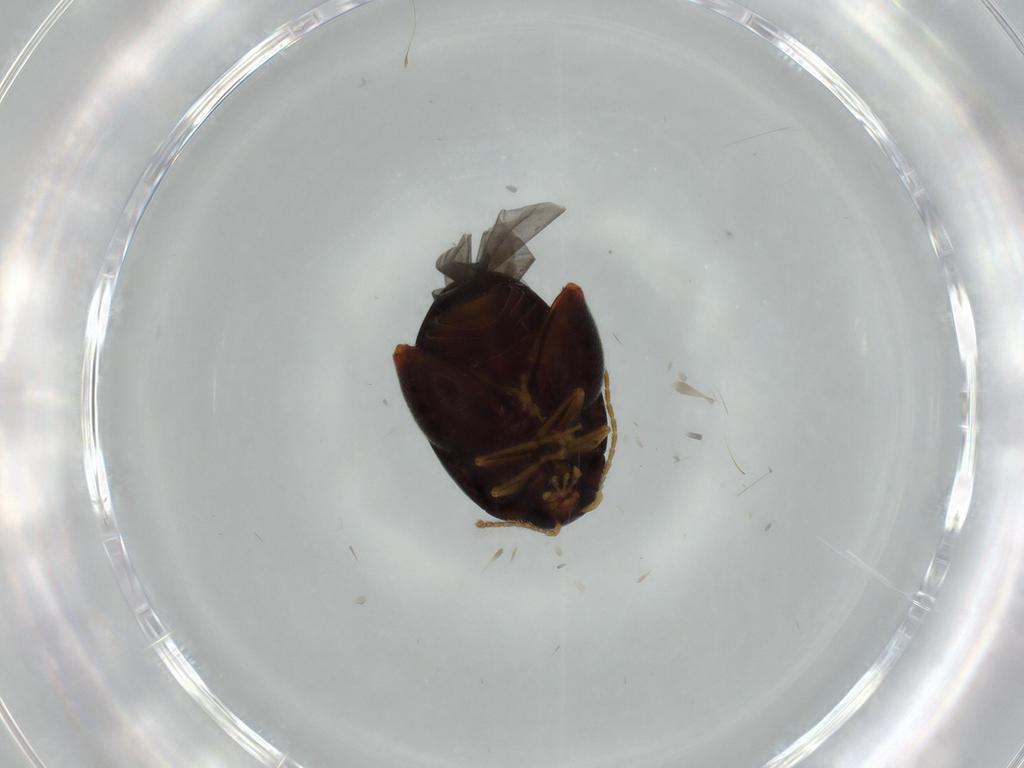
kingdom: Animalia
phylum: Arthropoda
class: Insecta
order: Coleoptera
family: Chrysomelidae
